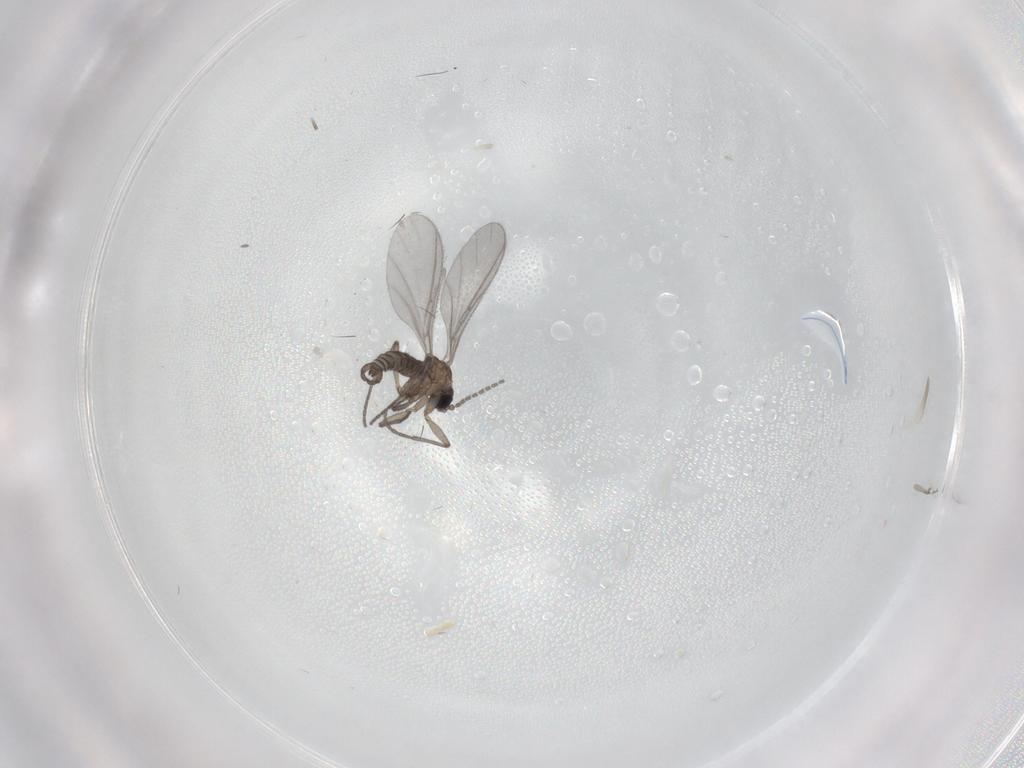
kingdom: Animalia
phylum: Arthropoda
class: Insecta
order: Diptera
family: Sciaridae
